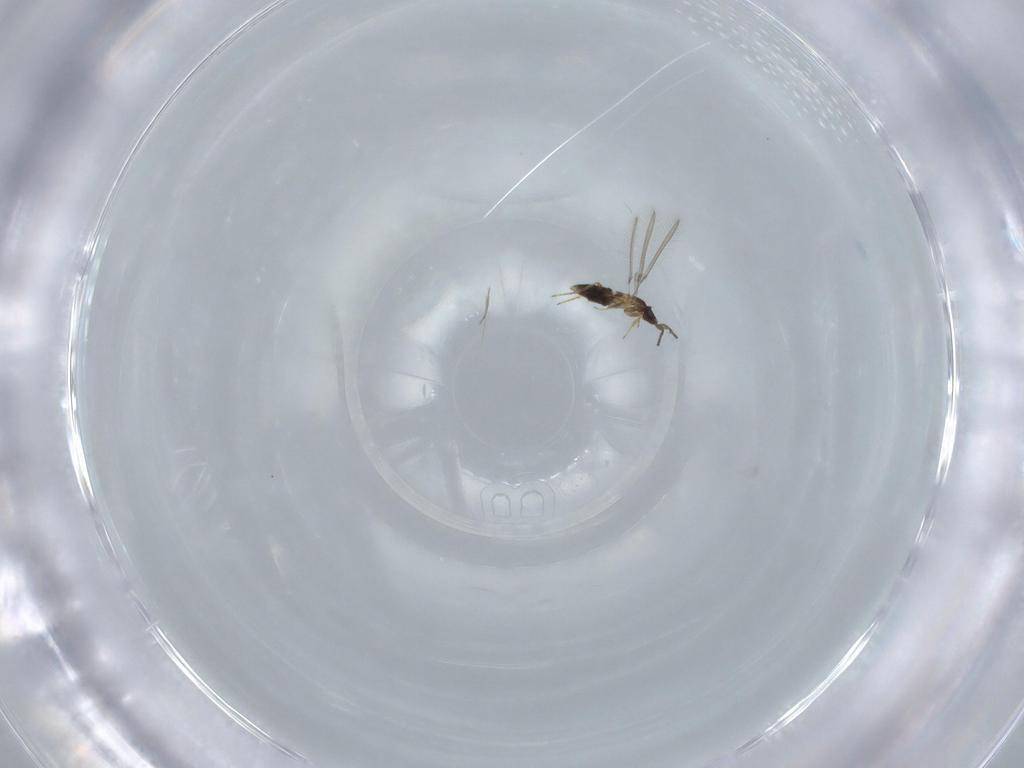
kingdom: Animalia
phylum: Arthropoda
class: Insecta
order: Hymenoptera
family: Mymaridae
